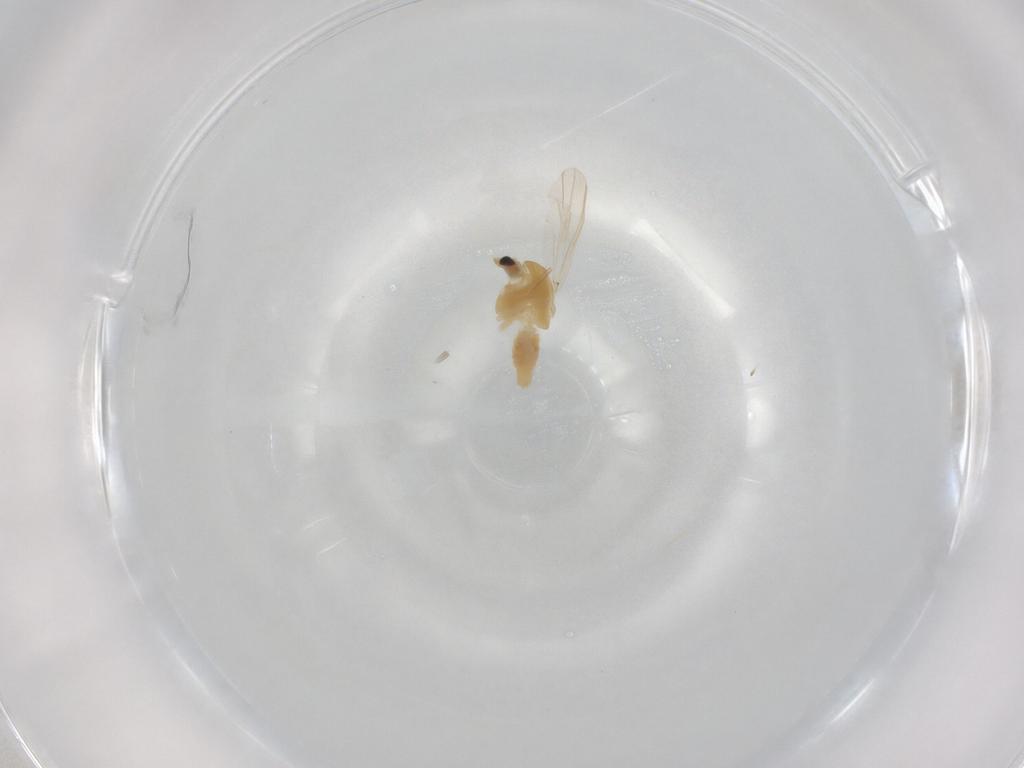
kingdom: Animalia
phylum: Arthropoda
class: Insecta
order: Diptera
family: Chironomidae
